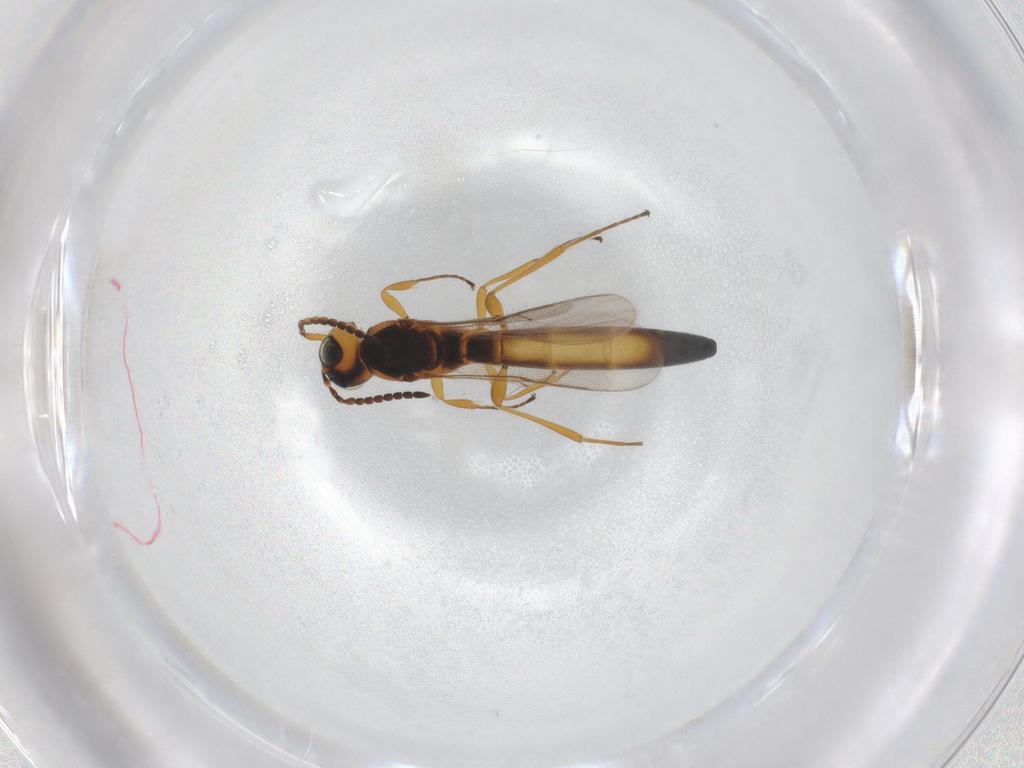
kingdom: Animalia
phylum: Arthropoda
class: Insecta
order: Hymenoptera
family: Scelionidae
